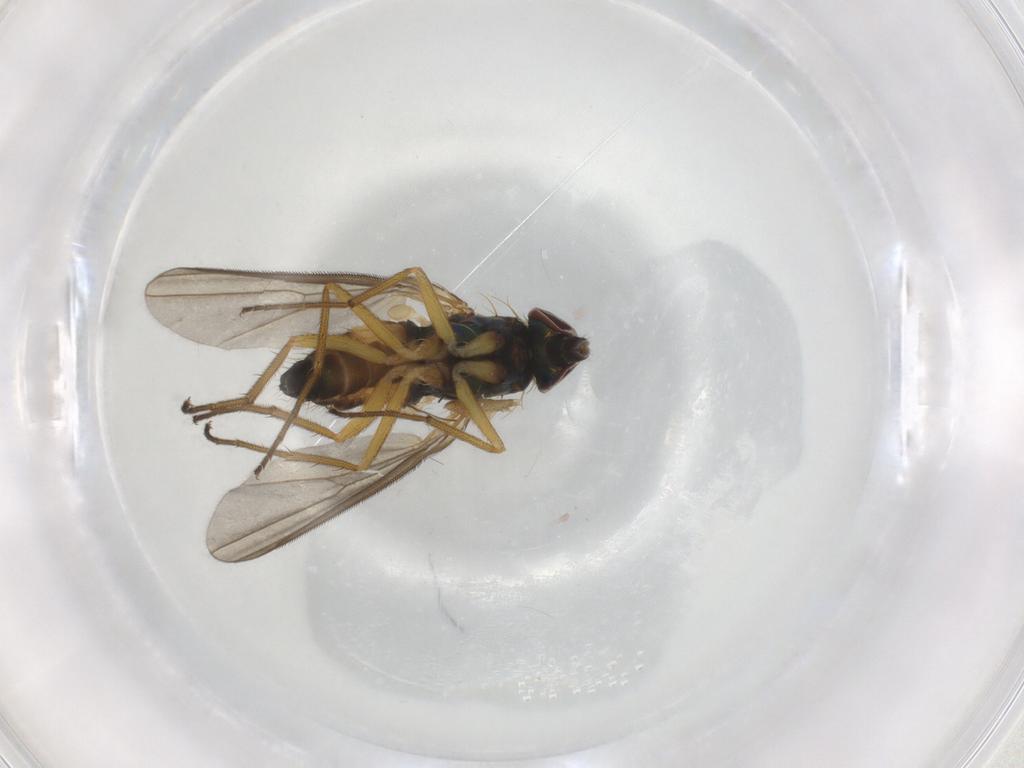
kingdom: Animalia
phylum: Arthropoda
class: Insecta
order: Diptera
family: Dolichopodidae
